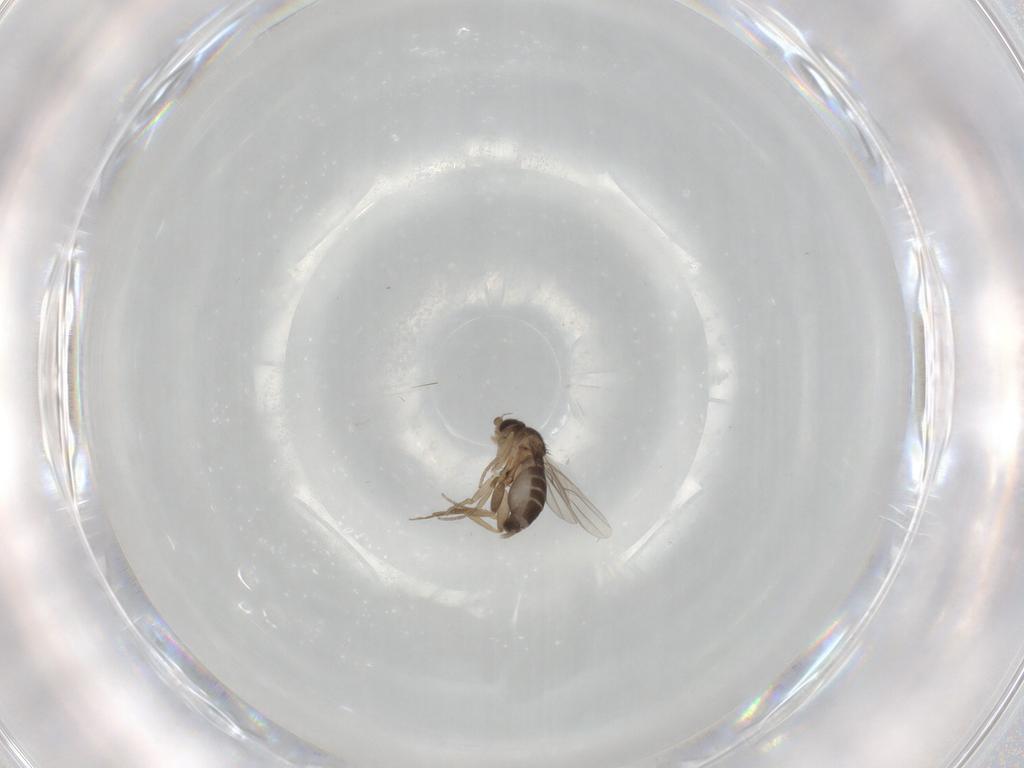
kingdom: Animalia
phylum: Arthropoda
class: Insecta
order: Diptera
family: Phoridae
